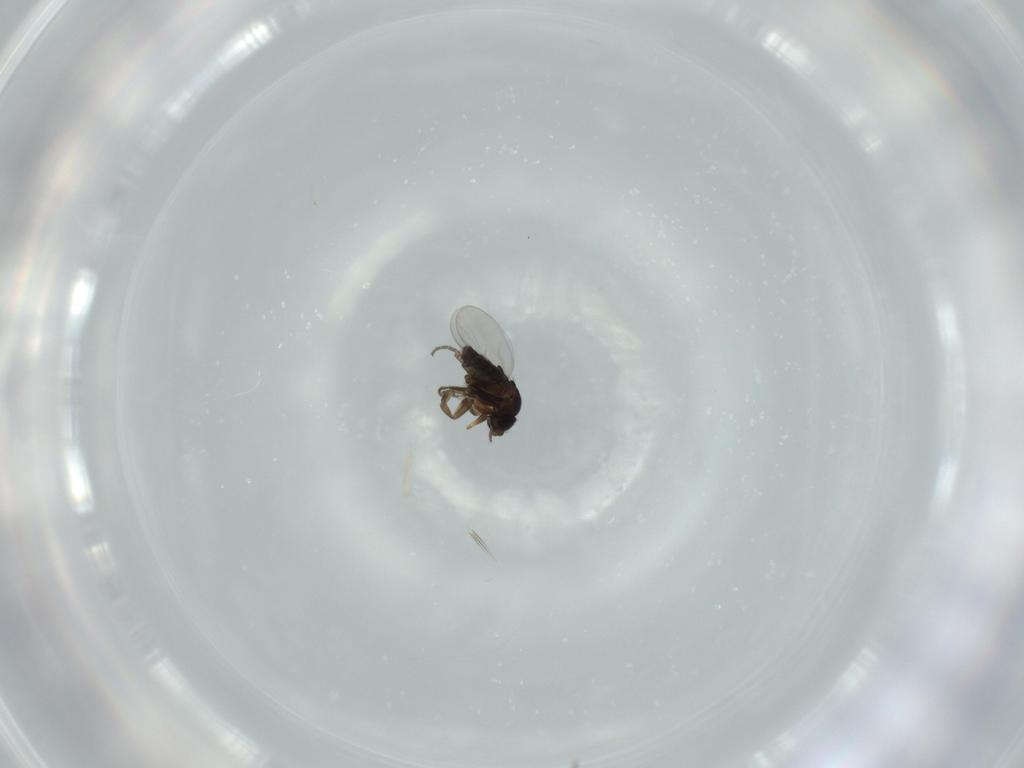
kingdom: Animalia
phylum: Arthropoda
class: Insecta
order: Diptera
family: Phoridae
